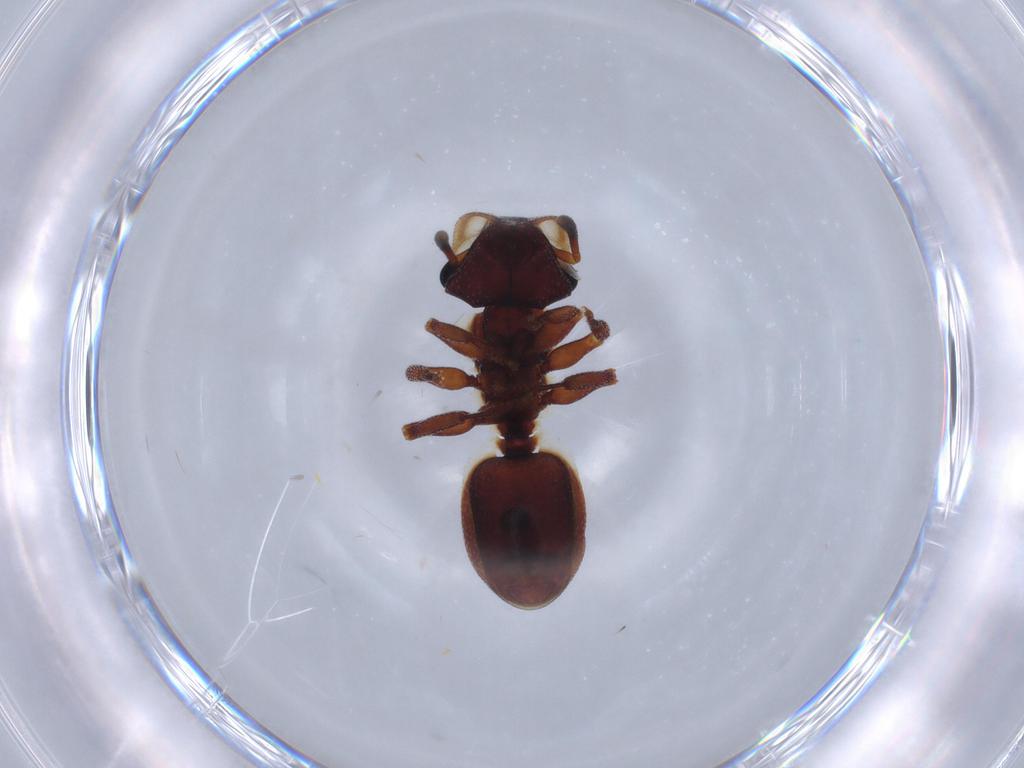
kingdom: Animalia
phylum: Arthropoda
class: Insecta
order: Hymenoptera
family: Formicidae
